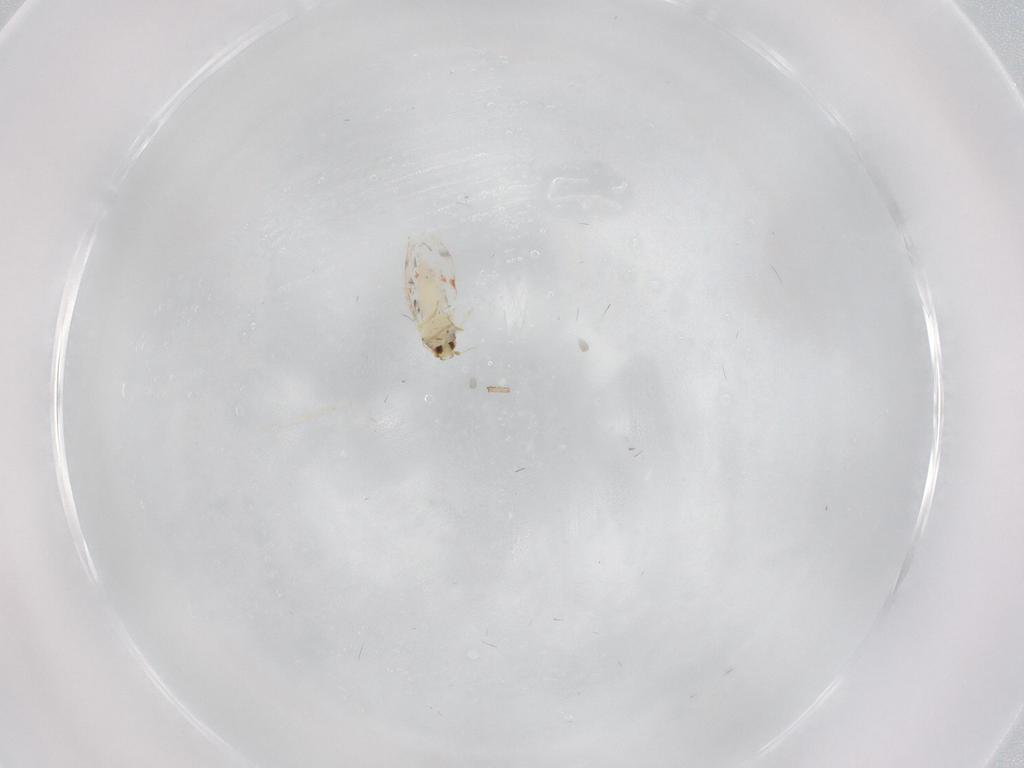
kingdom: Animalia
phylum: Arthropoda
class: Insecta
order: Hemiptera
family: Aleyrodidae
